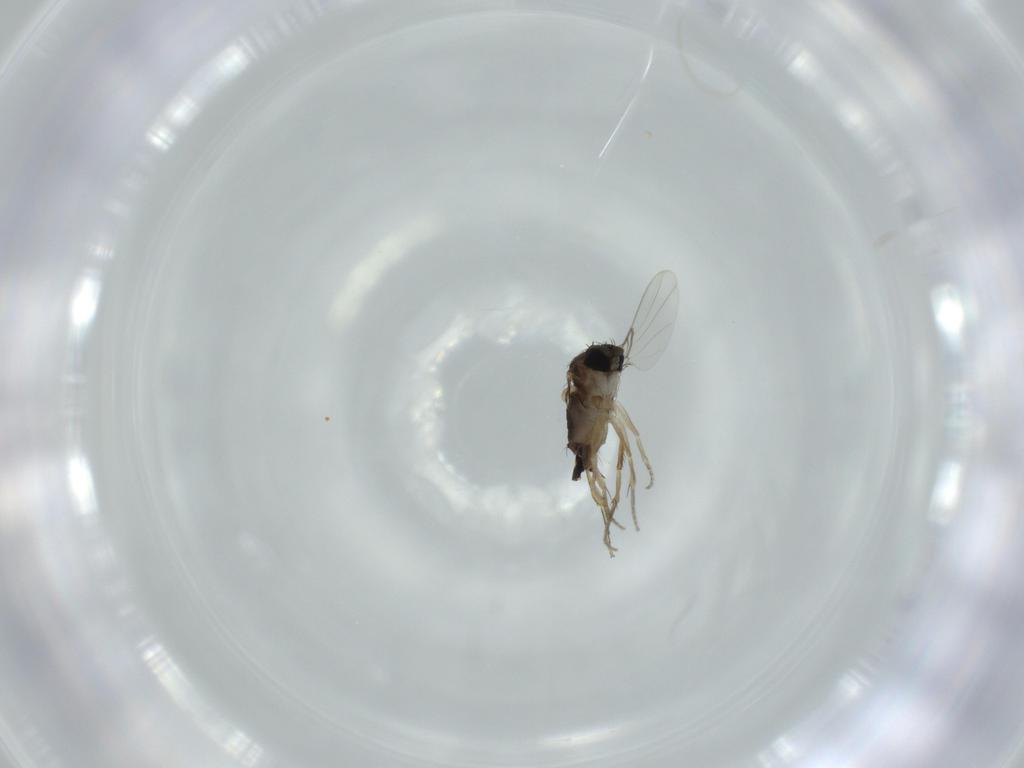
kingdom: Animalia
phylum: Arthropoda
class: Insecta
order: Diptera
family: Phoridae
